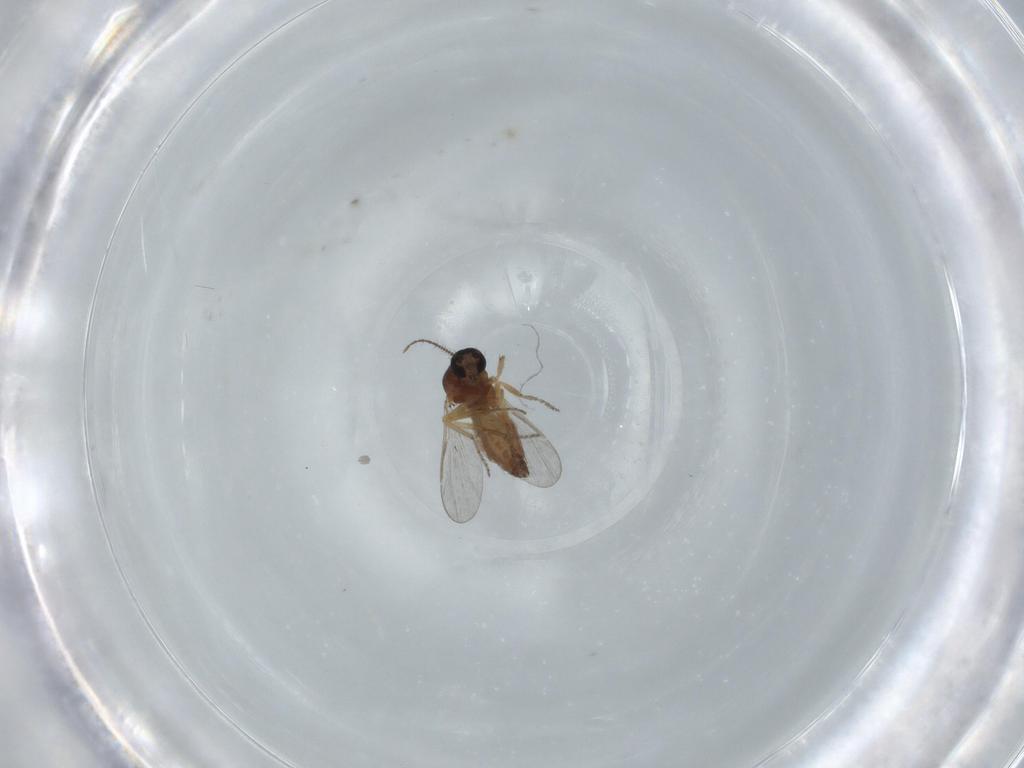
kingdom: Animalia
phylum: Arthropoda
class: Insecta
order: Diptera
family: Ceratopogonidae
